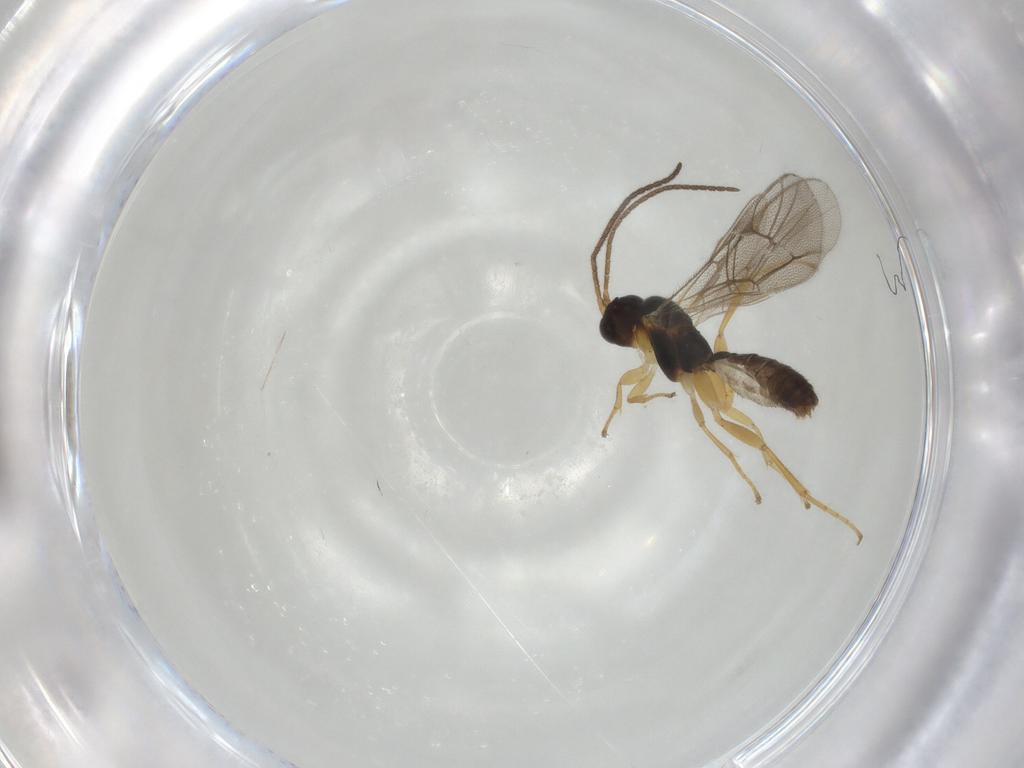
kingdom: Animalia
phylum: Arthropoda
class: Insecta
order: Hymenoptera
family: Ichneumonidae
